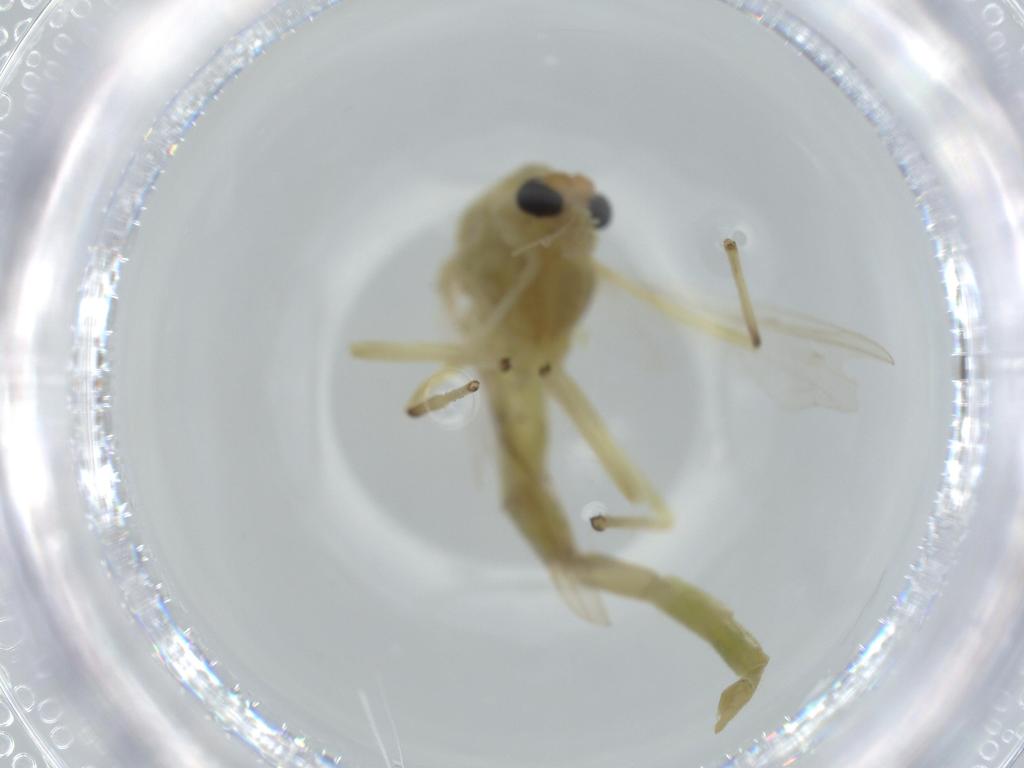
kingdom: Animalia
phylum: Arthropoda
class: Insecta
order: Diptera
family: Chironomidae
